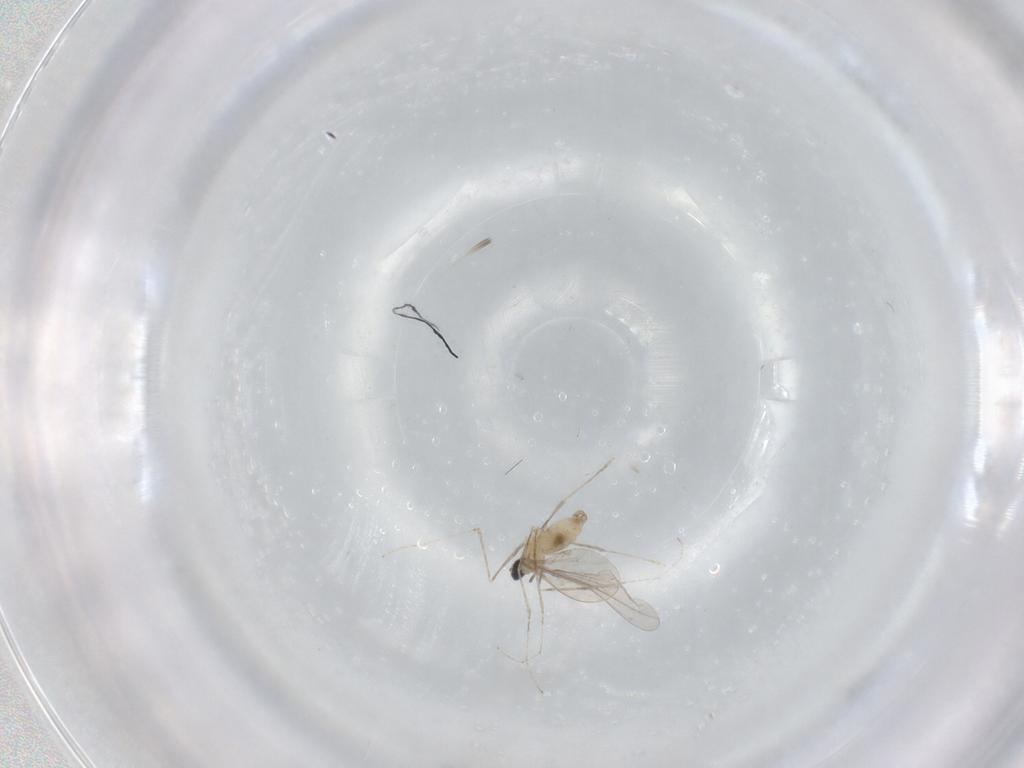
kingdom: Animalia
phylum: Arthropoda
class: Insecta
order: Diptera
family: Cecidomyiidae
